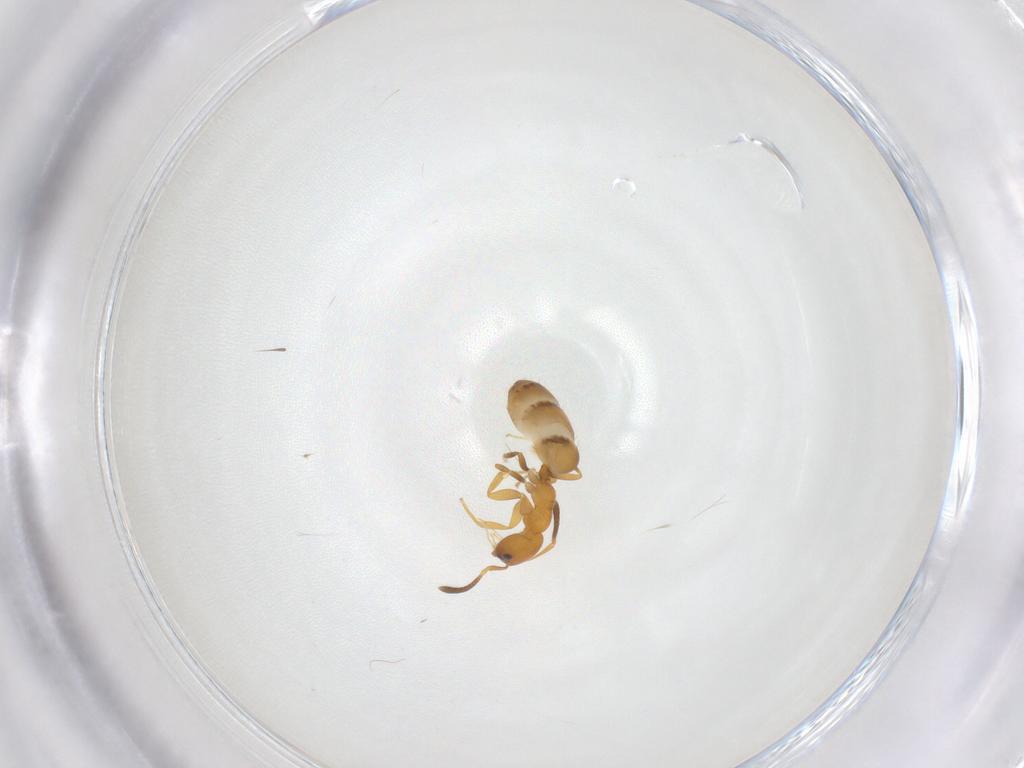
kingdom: Animalia
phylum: Arthropoda
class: Insecta
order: Hymenoptera
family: Formicidae
